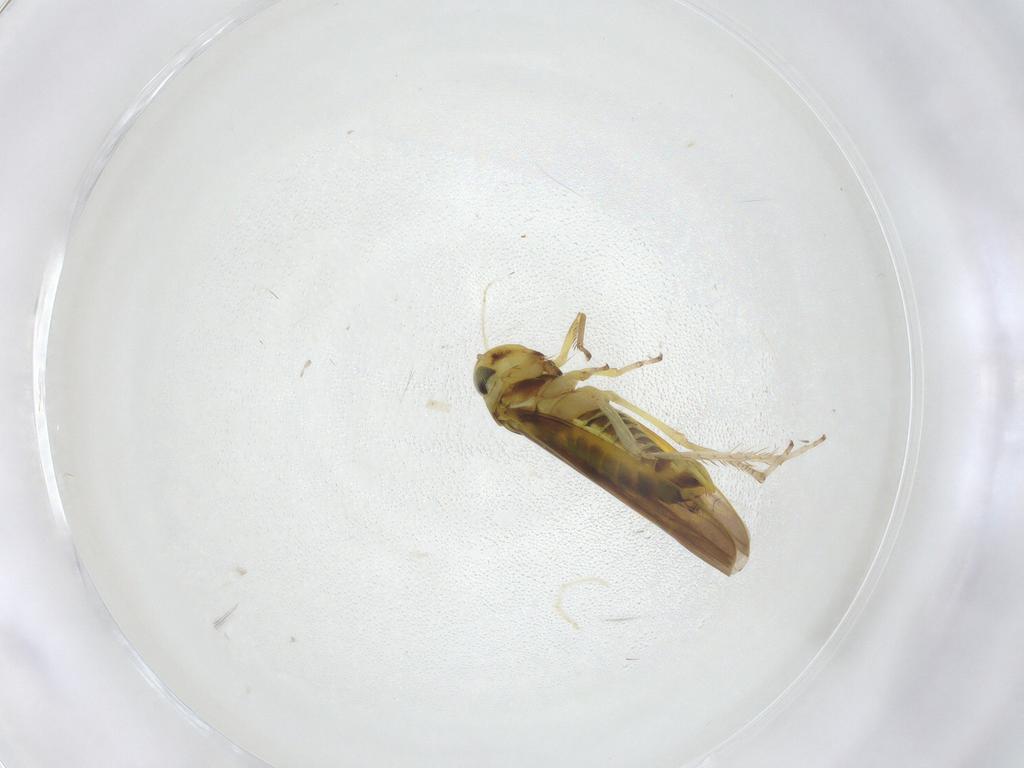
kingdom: Animalia
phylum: Arthropoda
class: Insecta
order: Hemiptera
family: Cicadellidae
